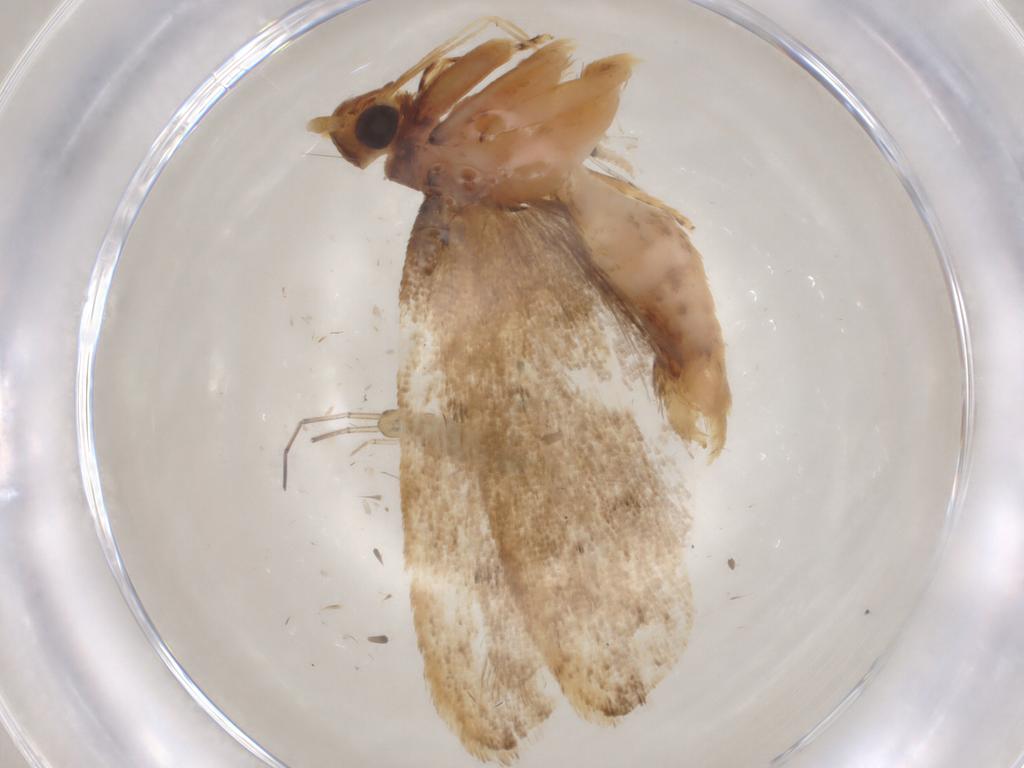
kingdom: Animalia
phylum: Arthropoda
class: Insecta
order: Lepidoptera
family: Lecithoceridae
